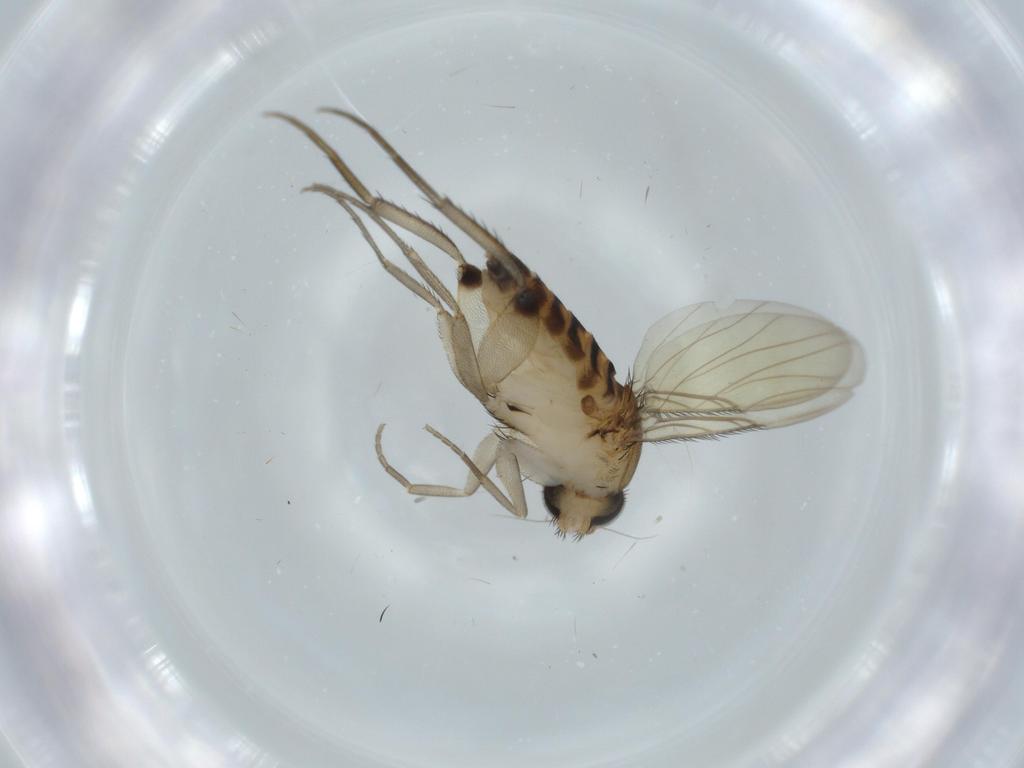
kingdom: Animalia
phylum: Arthropoda
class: Insecta
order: Diptera
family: Phoridae
